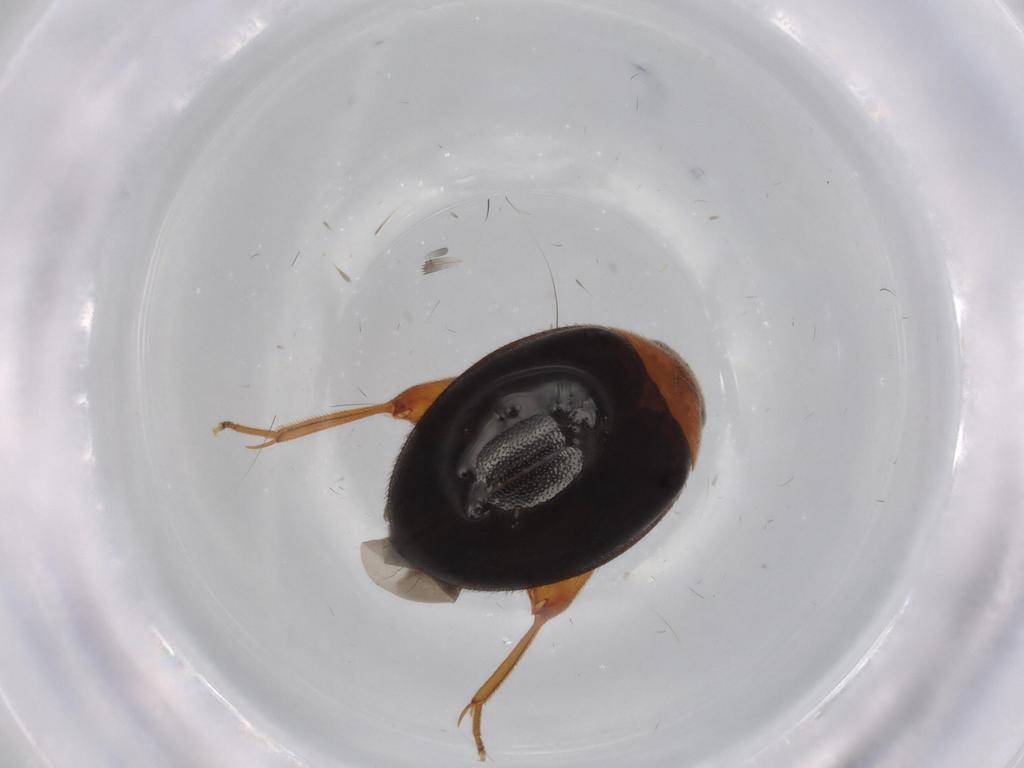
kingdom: Animalia
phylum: Arthropoda
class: Insecta
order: Coleoptera
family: Scirtidae
